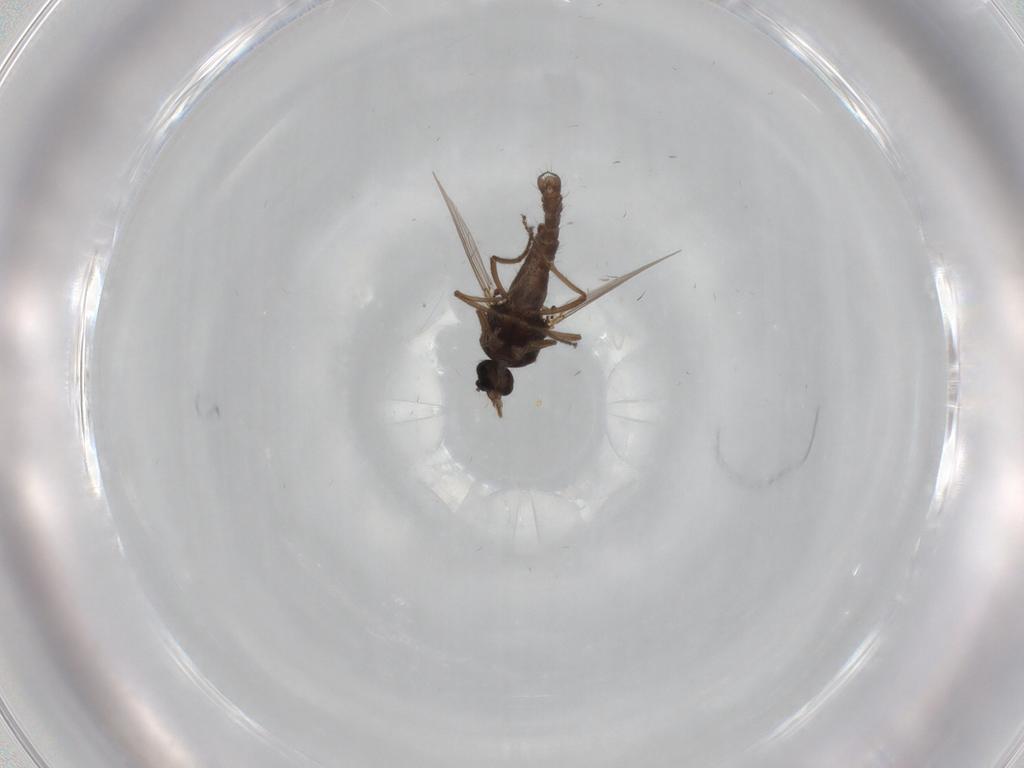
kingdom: Animalia
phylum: Arthropoda
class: Insecta
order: Diptera
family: Ceratopogonidae
